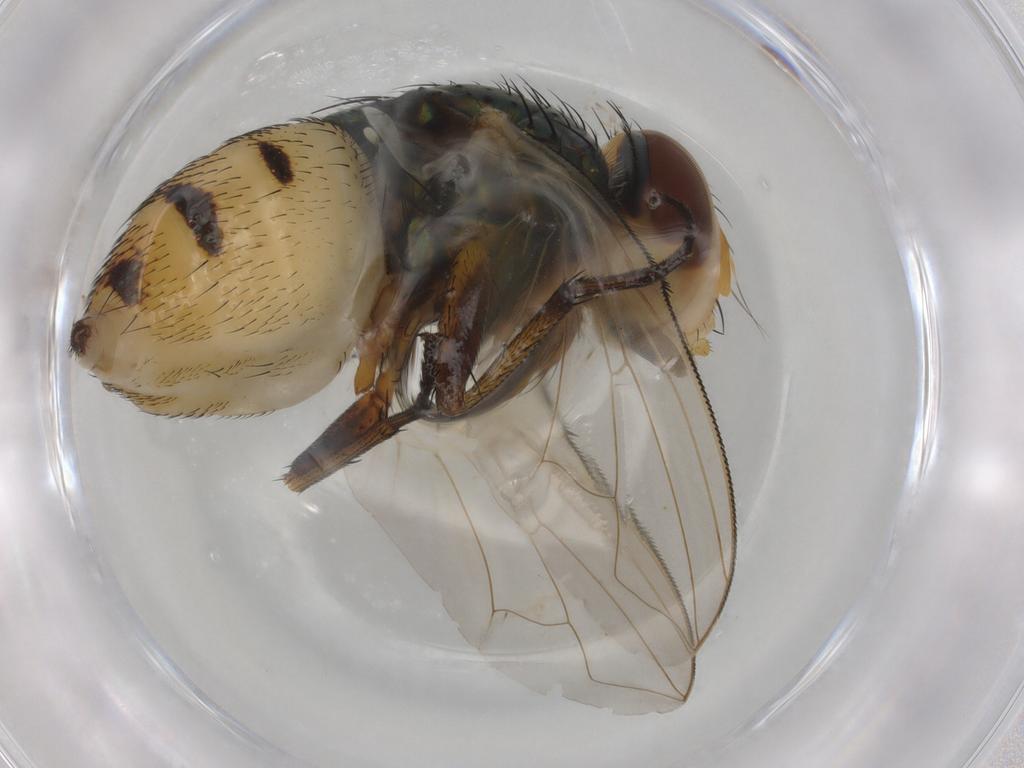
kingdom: Animalia
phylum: Arthropoda
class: Insecta
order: Diptera
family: Calliphoridae
